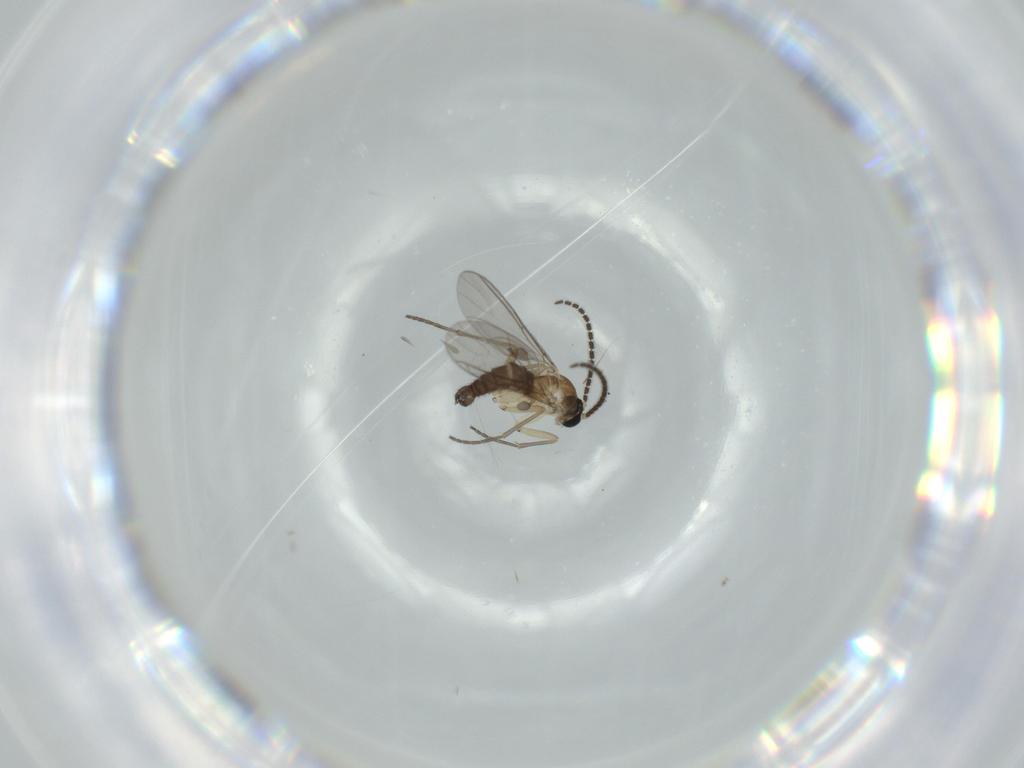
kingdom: Animalia
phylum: Arthropoda
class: Insecta
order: Diptera
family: Sciaridae
